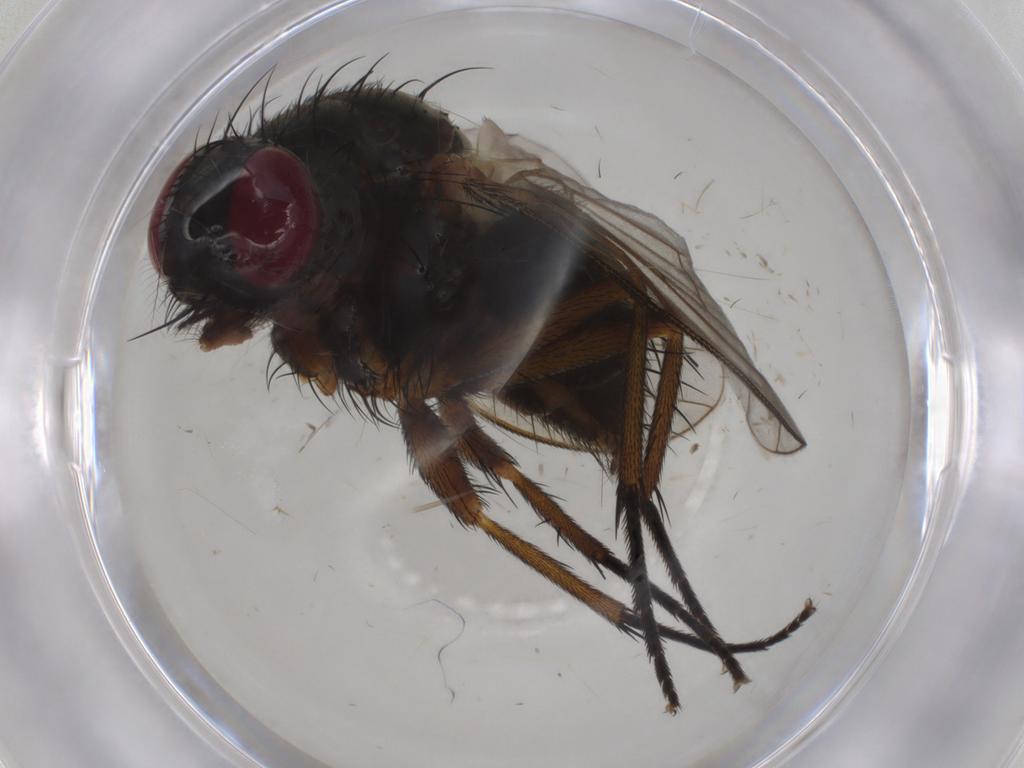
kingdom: Animalia
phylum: Arthropoda
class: Insecta
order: Diptera
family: Muscidae
